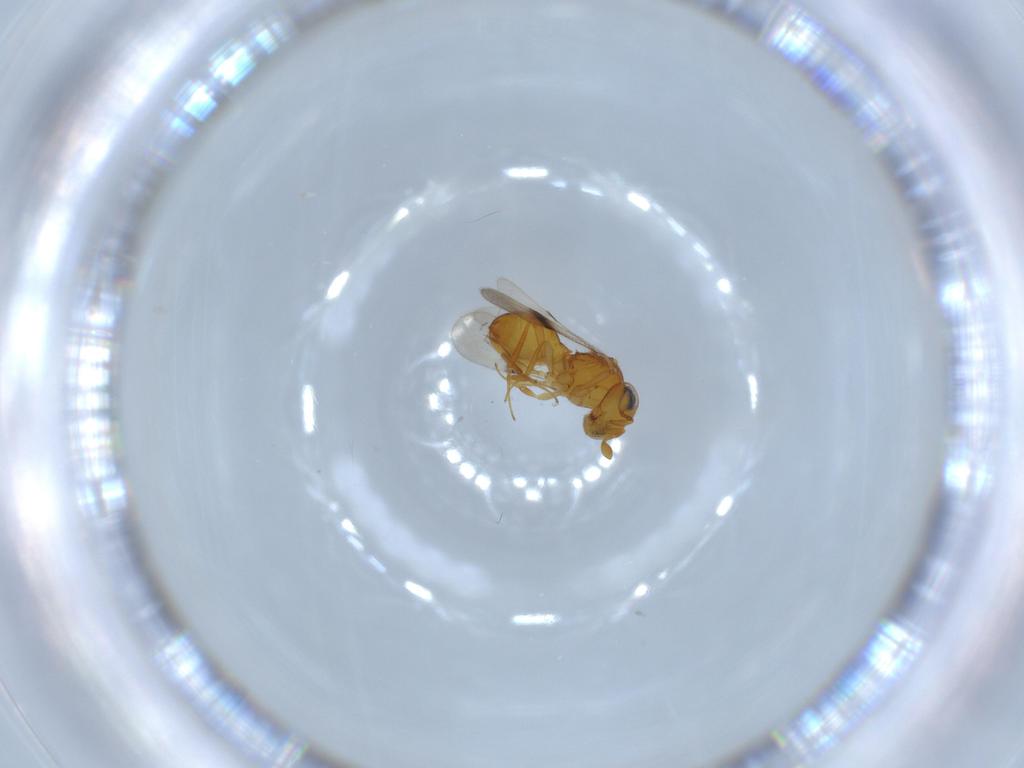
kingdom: Animalia
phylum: Arthropoda
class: Insecta
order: Hymenoptera
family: Scelionidae
